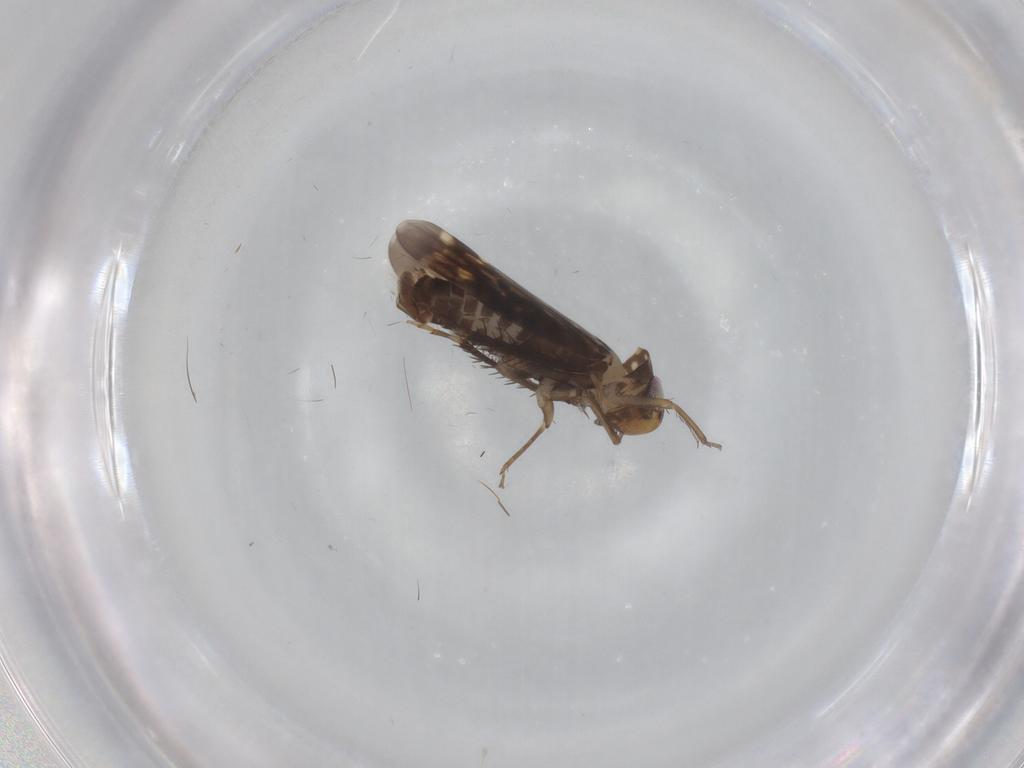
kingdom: Animalia
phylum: Arthropoda
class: Insecta
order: Hemiptera
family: Cicadellidae
